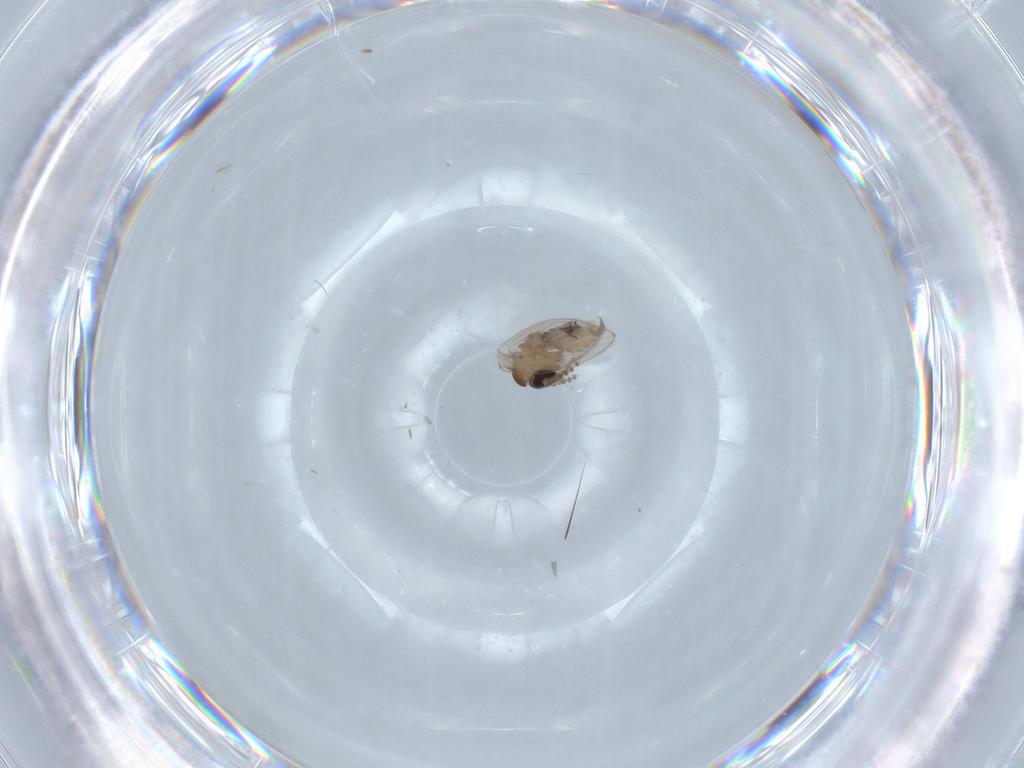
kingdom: Animalia
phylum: Arthropoda
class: Insecta
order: Diptera
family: Psychodidae
